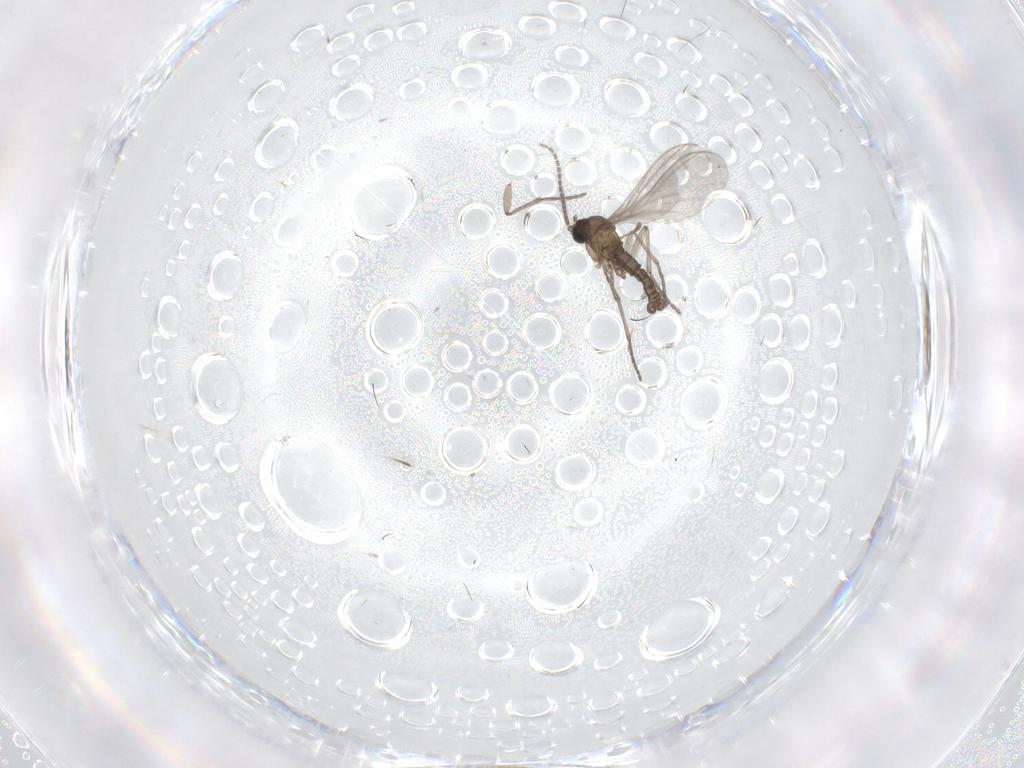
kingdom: Animalia
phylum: Arthropoda
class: Insecta
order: Diptera
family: Sciaridae
